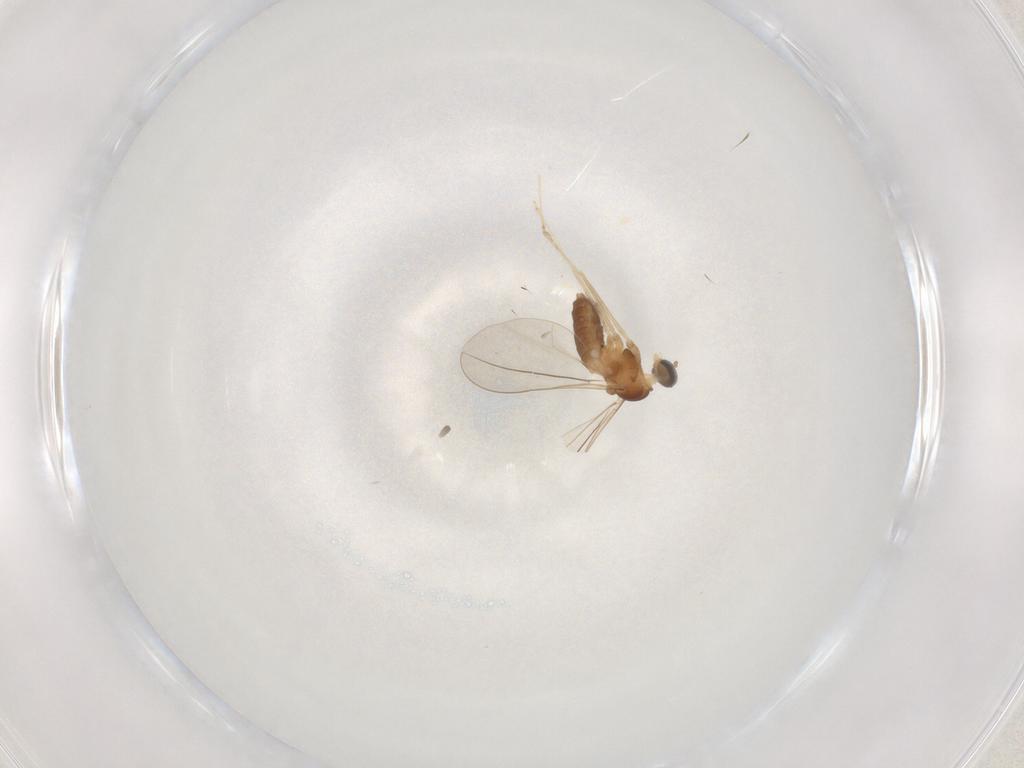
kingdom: Animalia
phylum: Arthropoda
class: Insecta
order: Diptera
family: Cecidomyiidae
